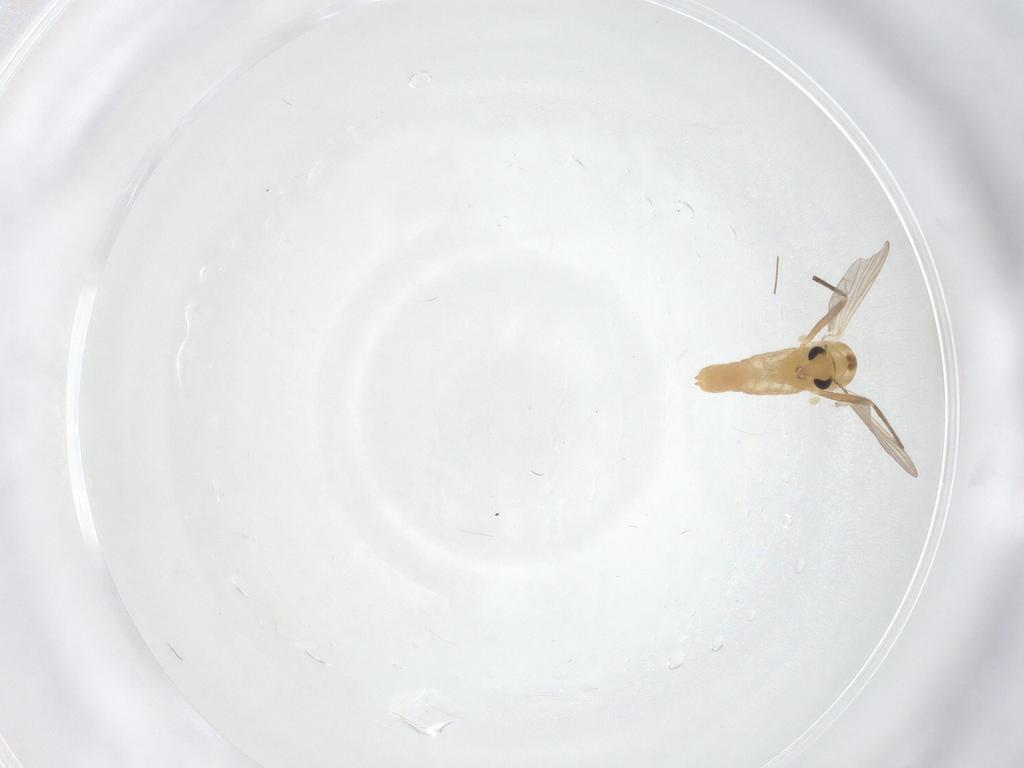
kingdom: Animalia
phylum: Arthropoda
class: Insecta
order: Diptera
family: Chironomidae
